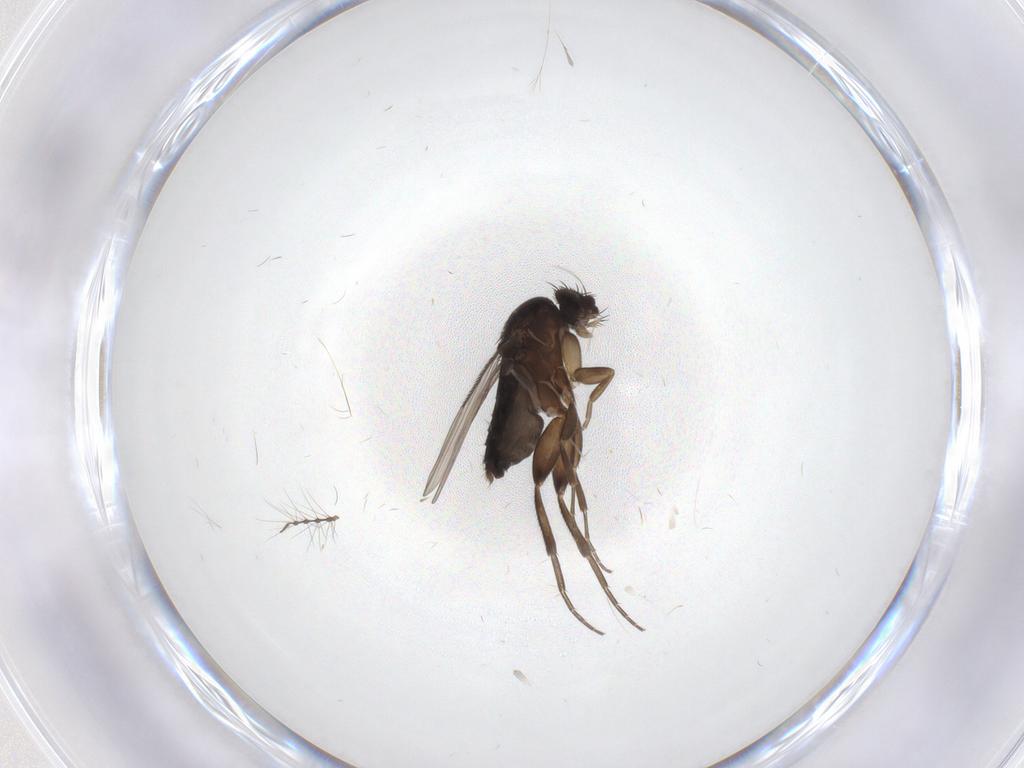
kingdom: Animalia
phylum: Arthropoda
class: Insecta
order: Diptera
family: Phoridae
